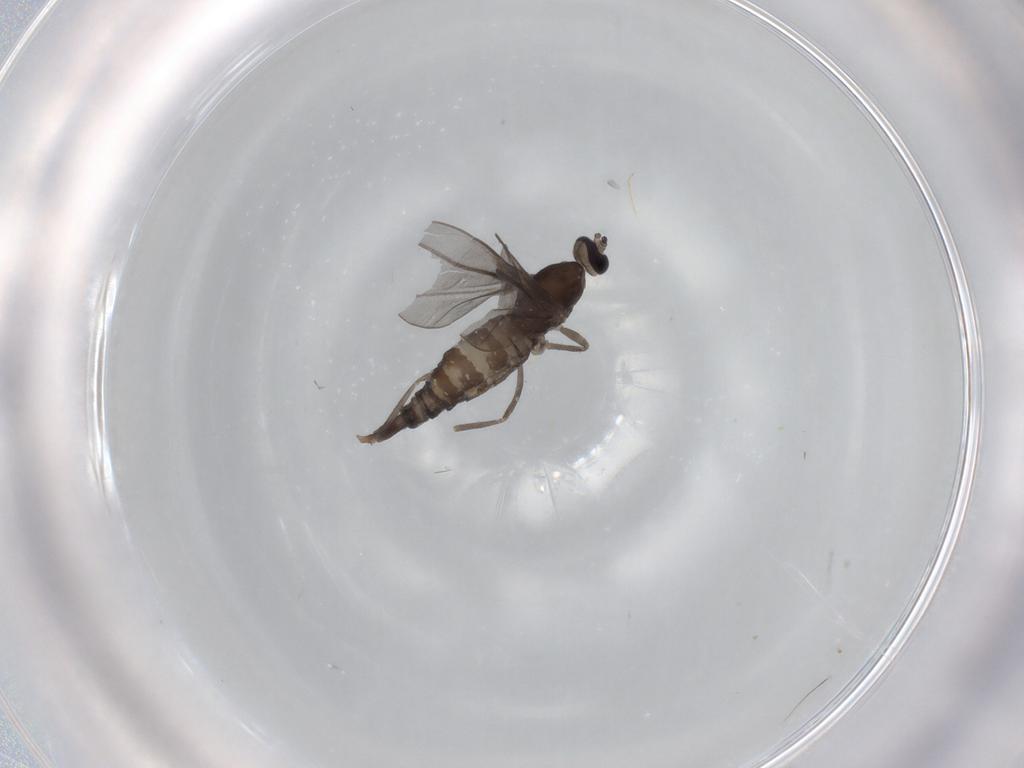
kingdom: Animalia
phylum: Arthropoda
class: Insecta
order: Diptera
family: Cecidomyiidae
